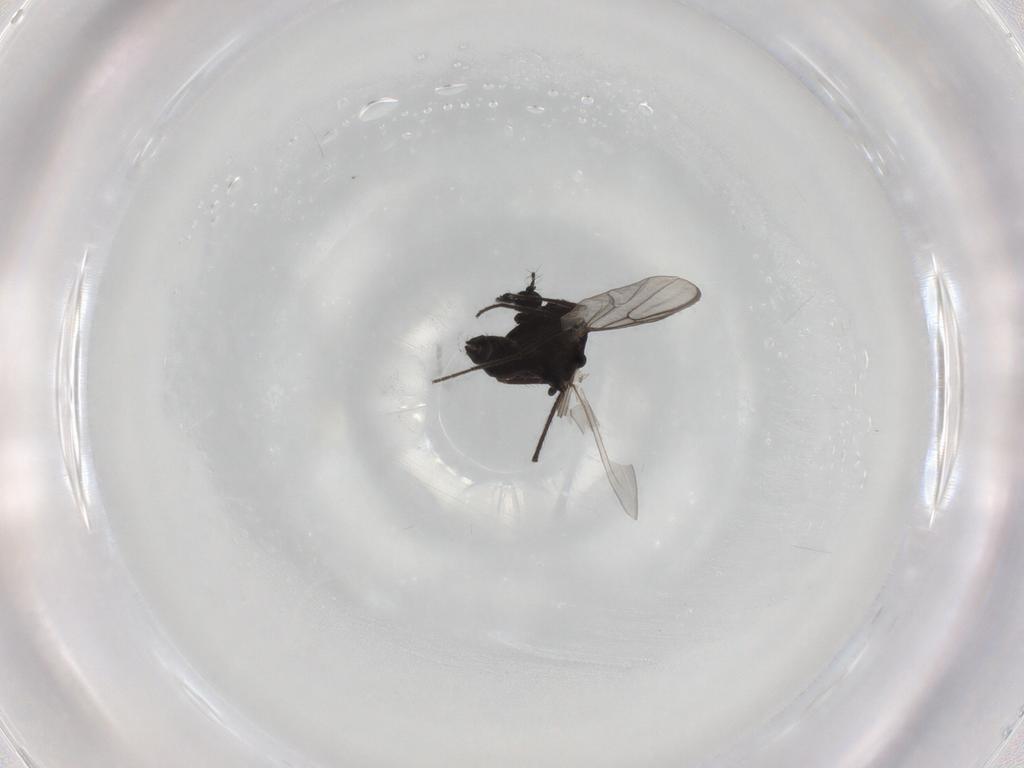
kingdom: Animalia
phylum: Arthropoda
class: Insecta
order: Diptera
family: Chironomidae
